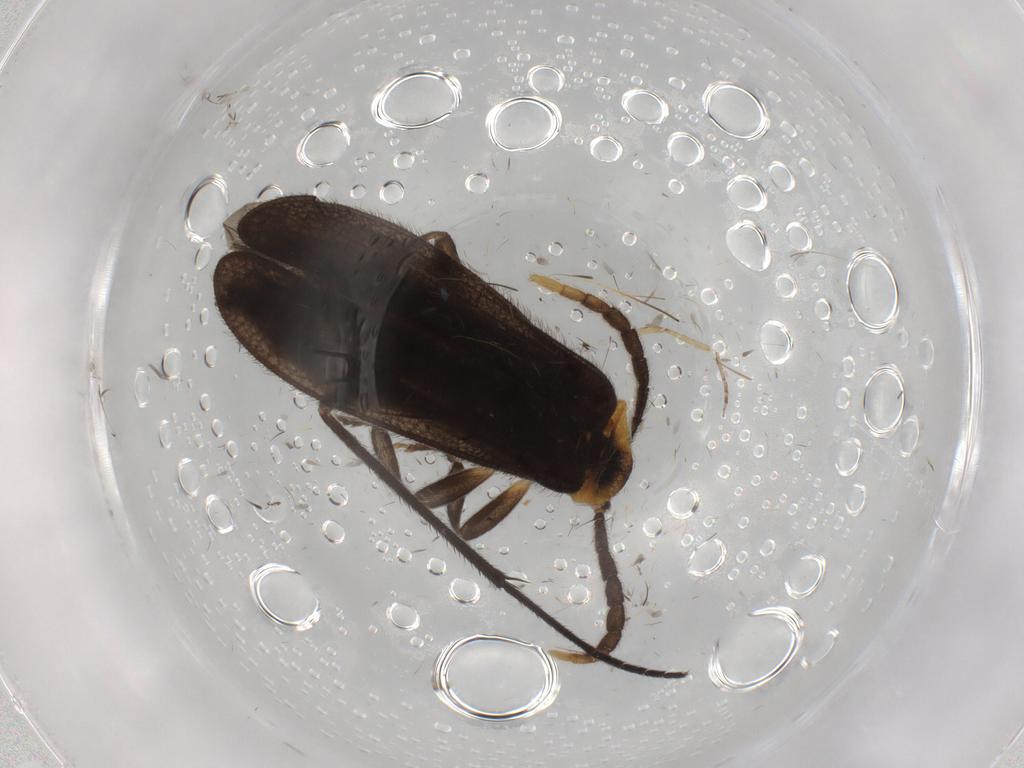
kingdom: Animalia
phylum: Arthropoda
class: Insecta
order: Coleoptera
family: Lycidae
